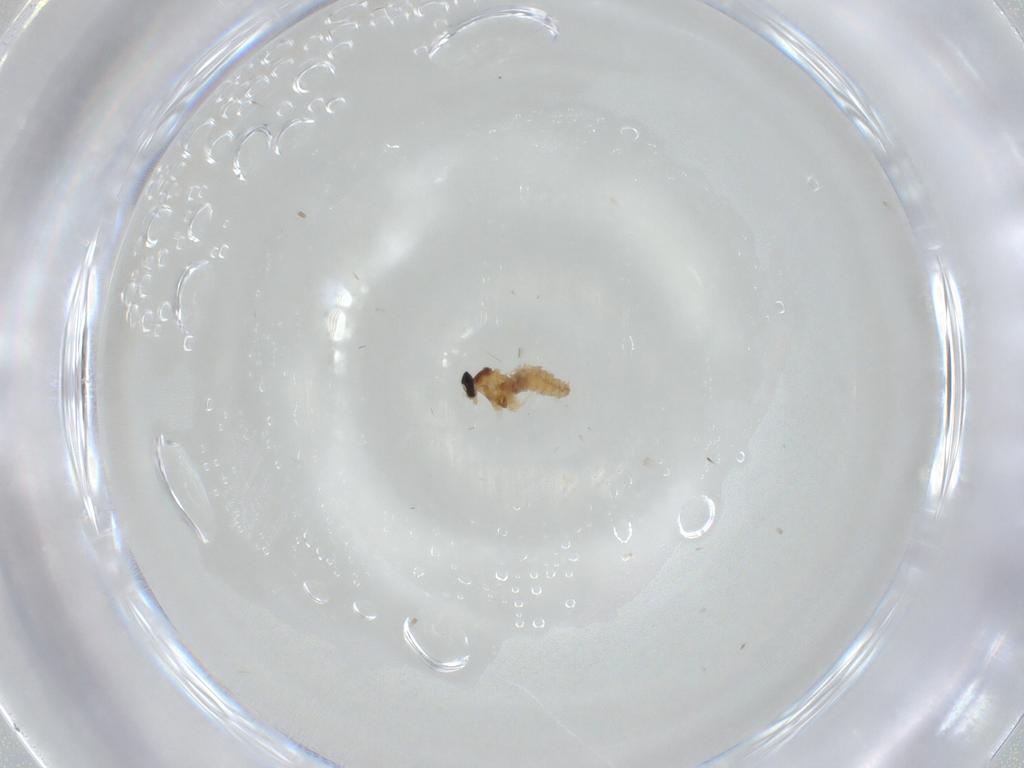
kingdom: Animalia
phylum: Arthropoda
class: Insecta
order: Diptera
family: Cecidomyiidae
